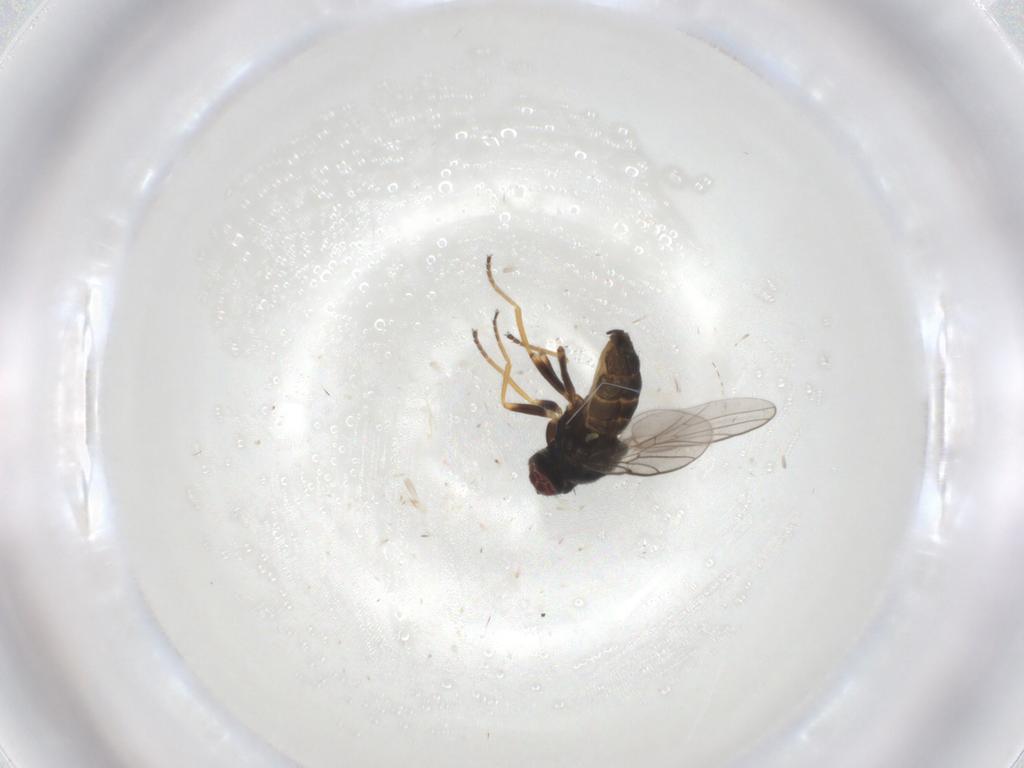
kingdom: Animalia
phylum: Arthropoda
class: Insecta
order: Diptera
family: Chloropidae
